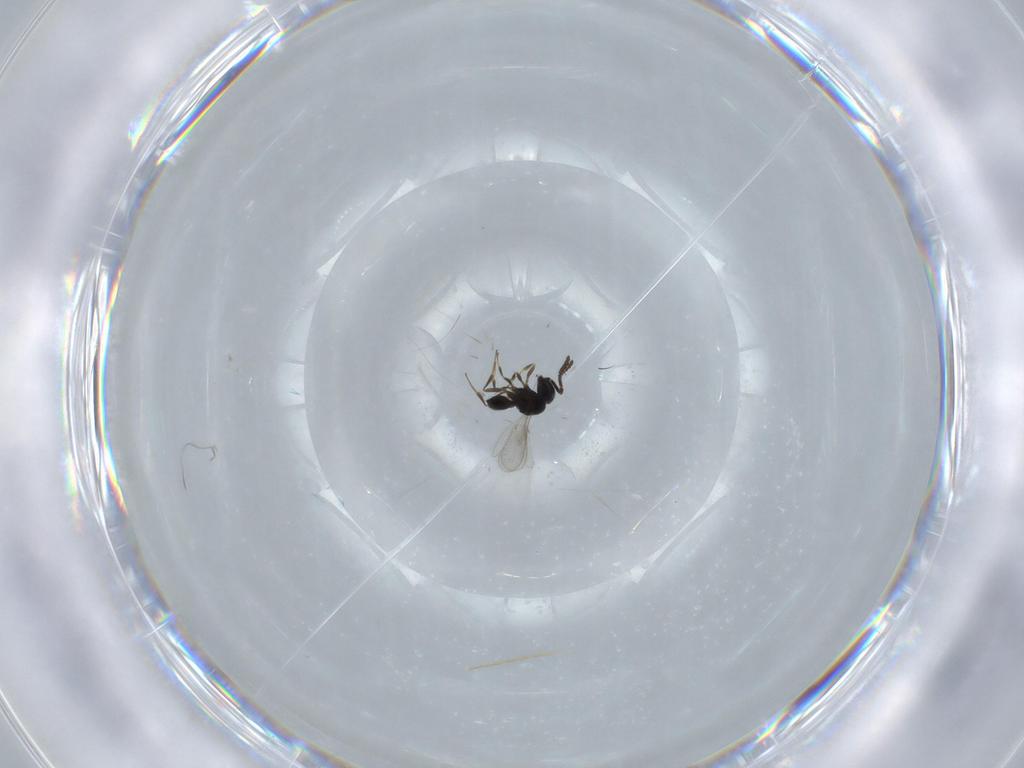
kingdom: Animalia
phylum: Arthropoda
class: Insecta
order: Hymenoptera
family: Scelionidae
